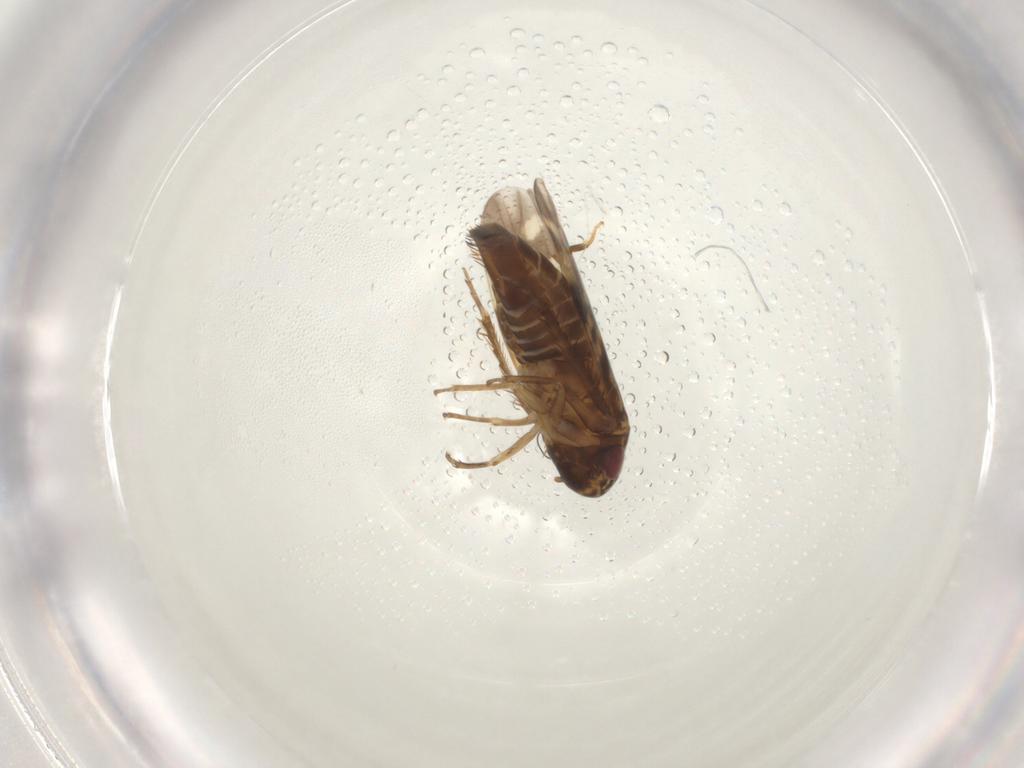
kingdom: Animalia
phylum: Arthropoda
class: Insecta
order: Hemiptera
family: Cicadellidae
